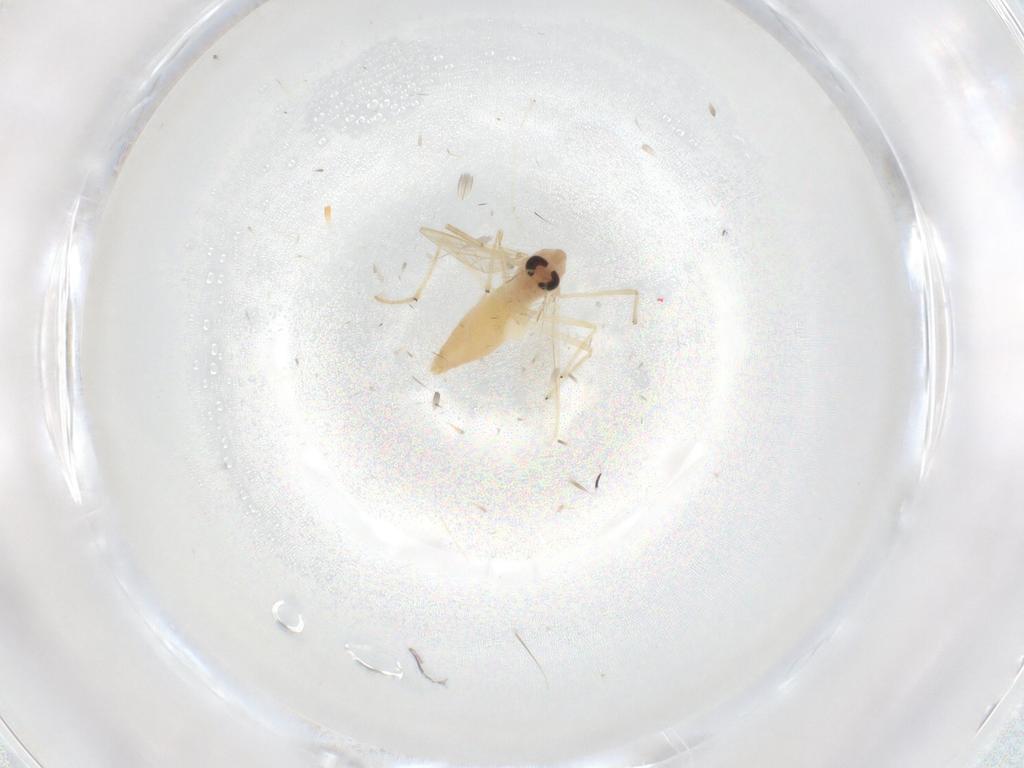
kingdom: Animalia
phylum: Arthropoda
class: Insecta
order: Diptera
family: Chironomidae
